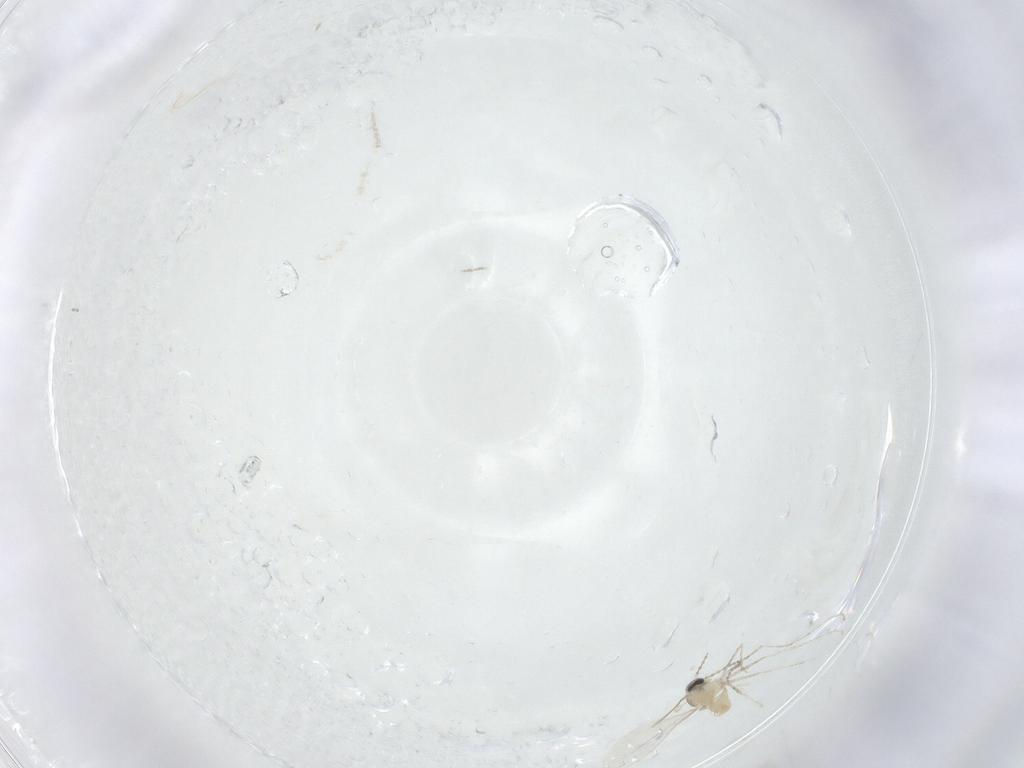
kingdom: Animalia
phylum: Arthropoda
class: Insecta
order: Diptera
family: Cecidomyiidae
